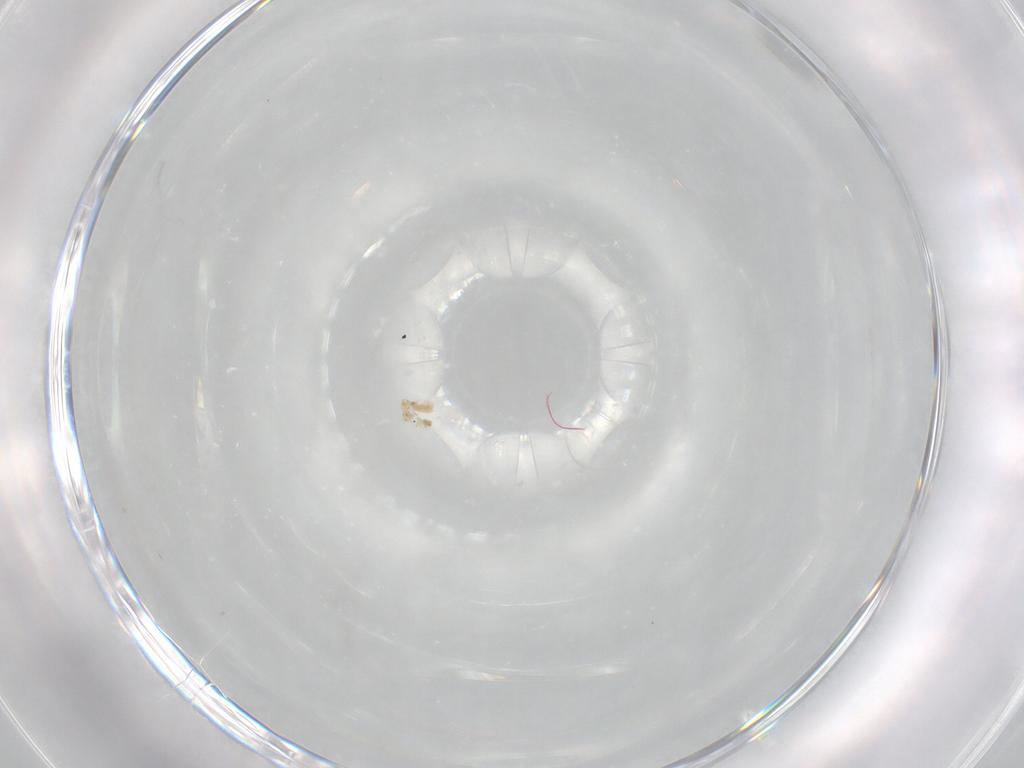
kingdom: Animalia
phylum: Arthropoda
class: Arachnida
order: Trombidiformes
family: Stigmaeidae
